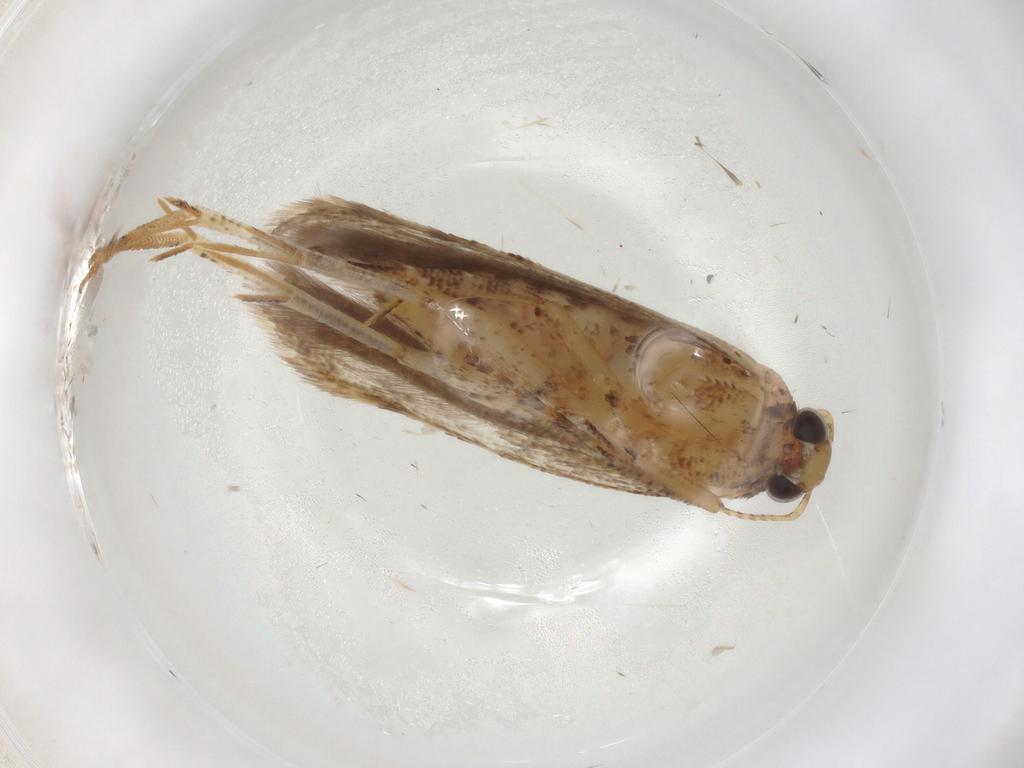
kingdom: Animalia
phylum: Arthropoda
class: Insecta
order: Lepidoptera
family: Gelechiidae
